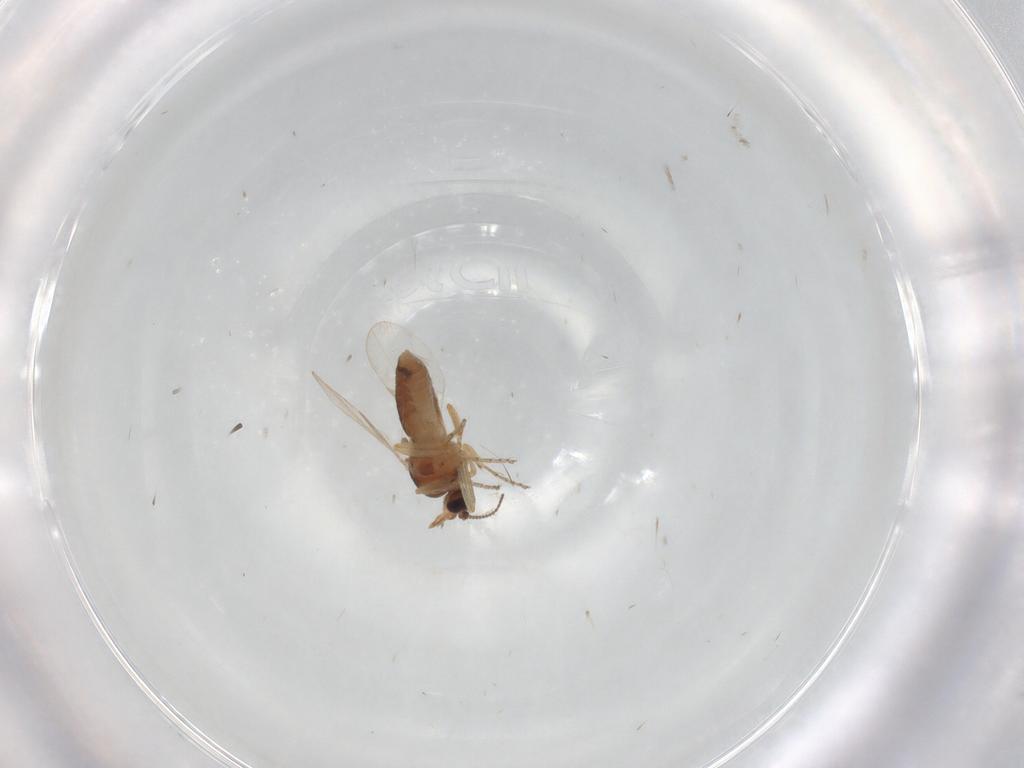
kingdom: Animalia
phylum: Arthropoda
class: Insecta
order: Diptera
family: Ceratopogonidae
